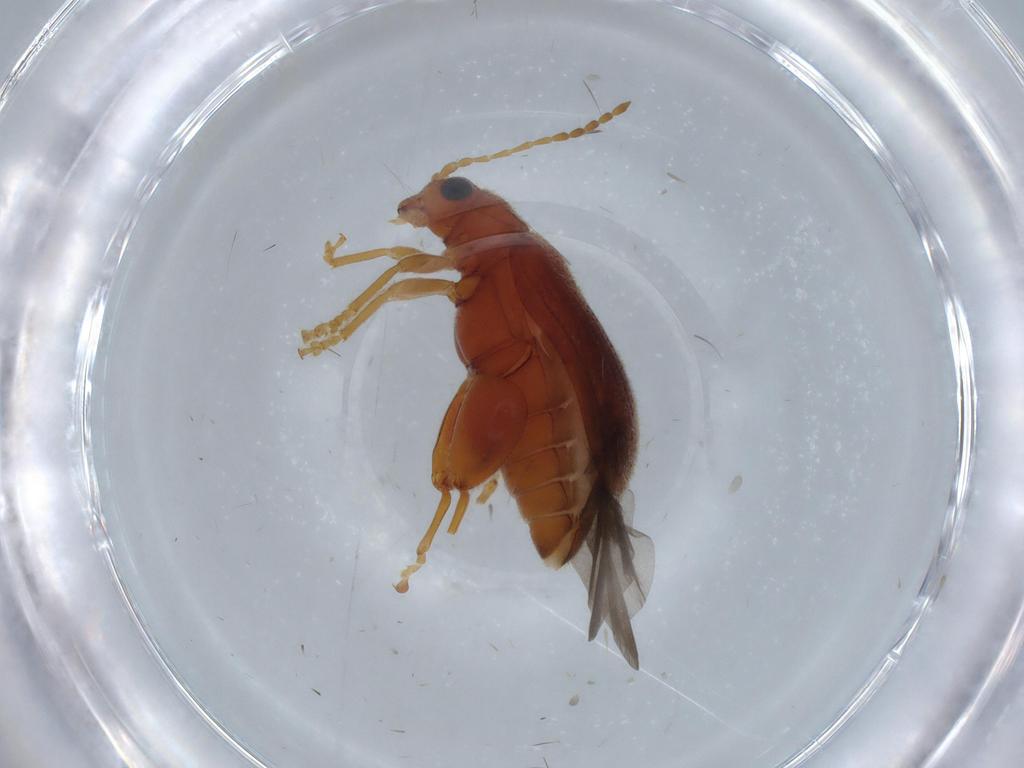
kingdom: Animalia
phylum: Arthropoda
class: Insecta
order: Coleoptera
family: Chrysomelidae
